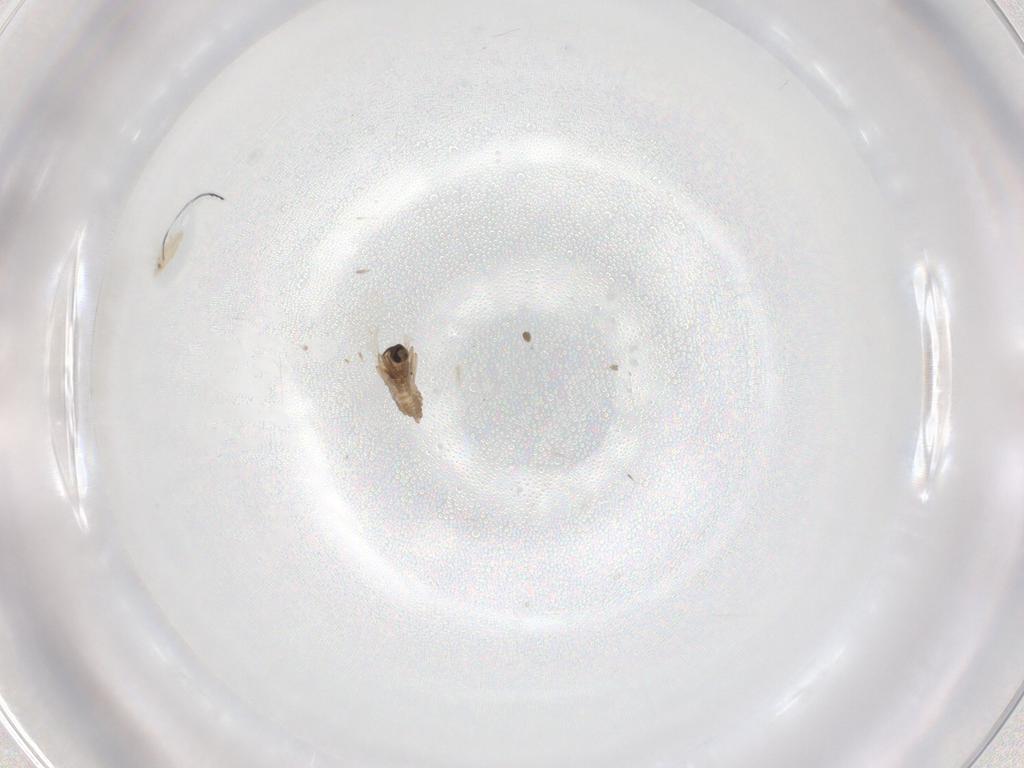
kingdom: Animalia
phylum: Arthropoda
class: Insecta
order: Diptera
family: Cecidomyiidae
